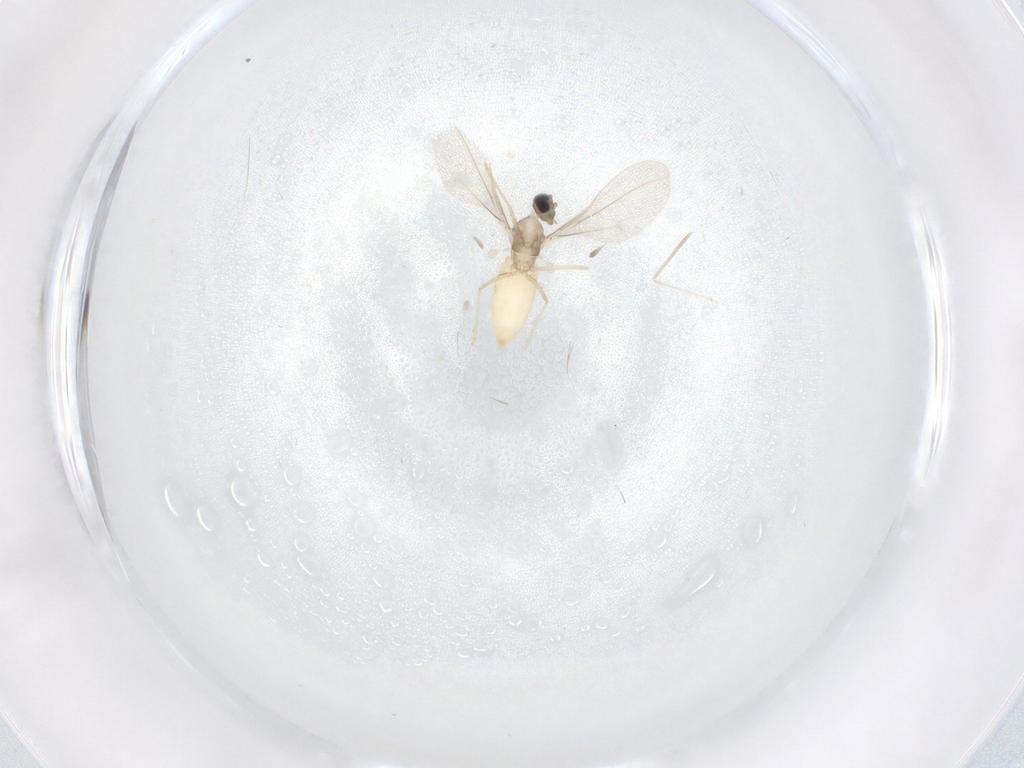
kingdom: Animalia
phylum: Arthropoda
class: Insecta
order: Diptera
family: Cecidomyiidae
